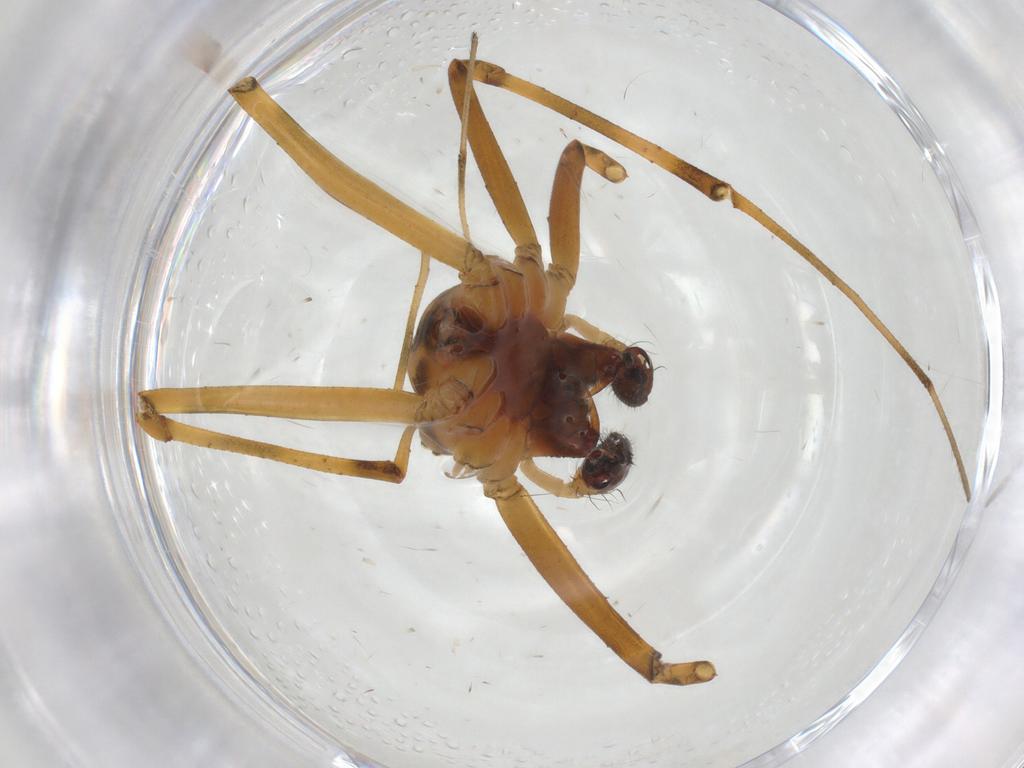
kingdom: Animalia
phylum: Arthropoda
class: Arachnida
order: Araneae
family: Linyphiidae
